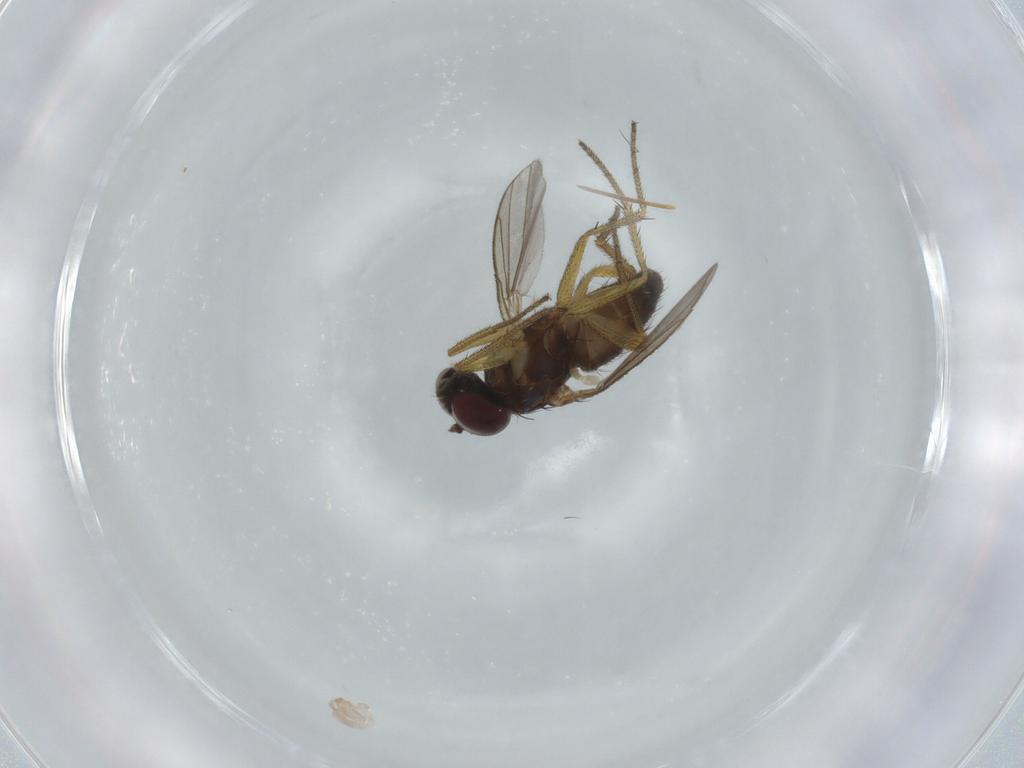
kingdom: Animalia
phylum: Arthropoda
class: Insecta
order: Diptera
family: Dolichopodidae
